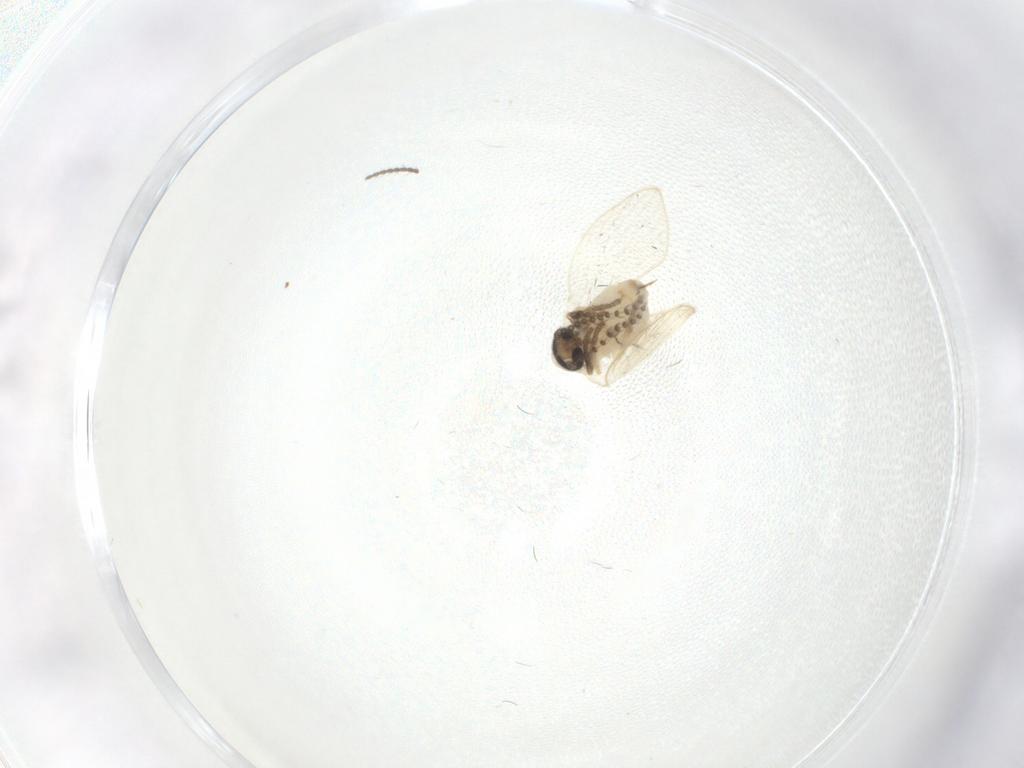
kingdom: Animalia
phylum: Arthropoda
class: Insecta
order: Diptera
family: Psychodidae
